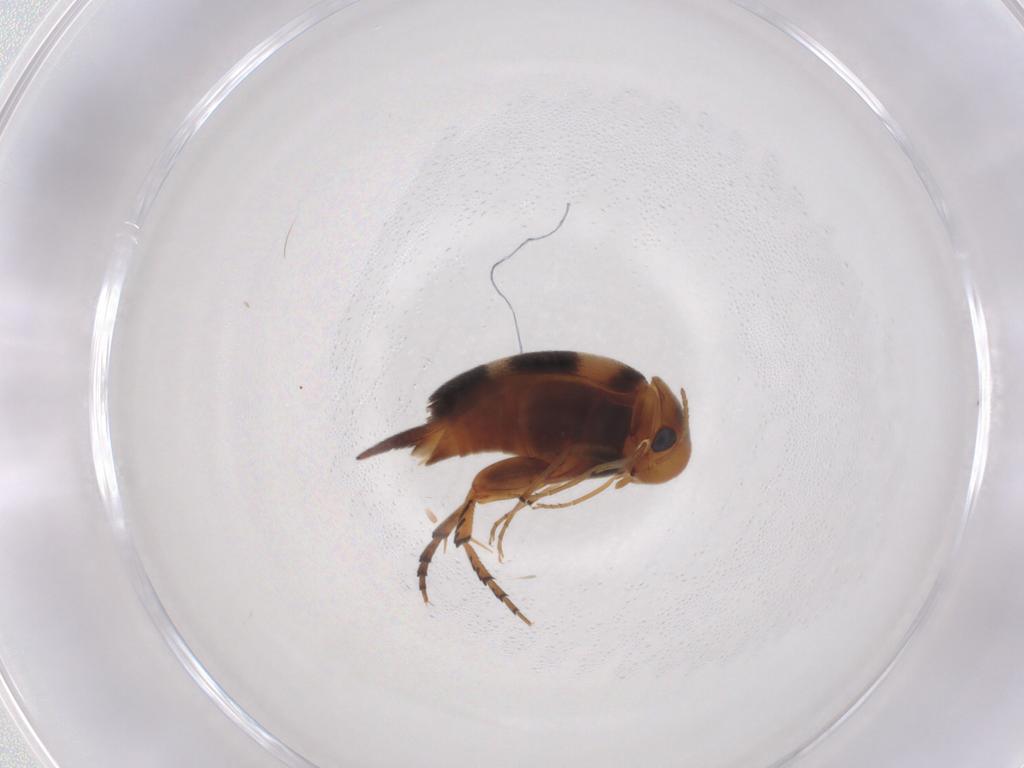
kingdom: Animalia
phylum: Arthropoda
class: Insecta
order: Coleoptera
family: Mordellidae
